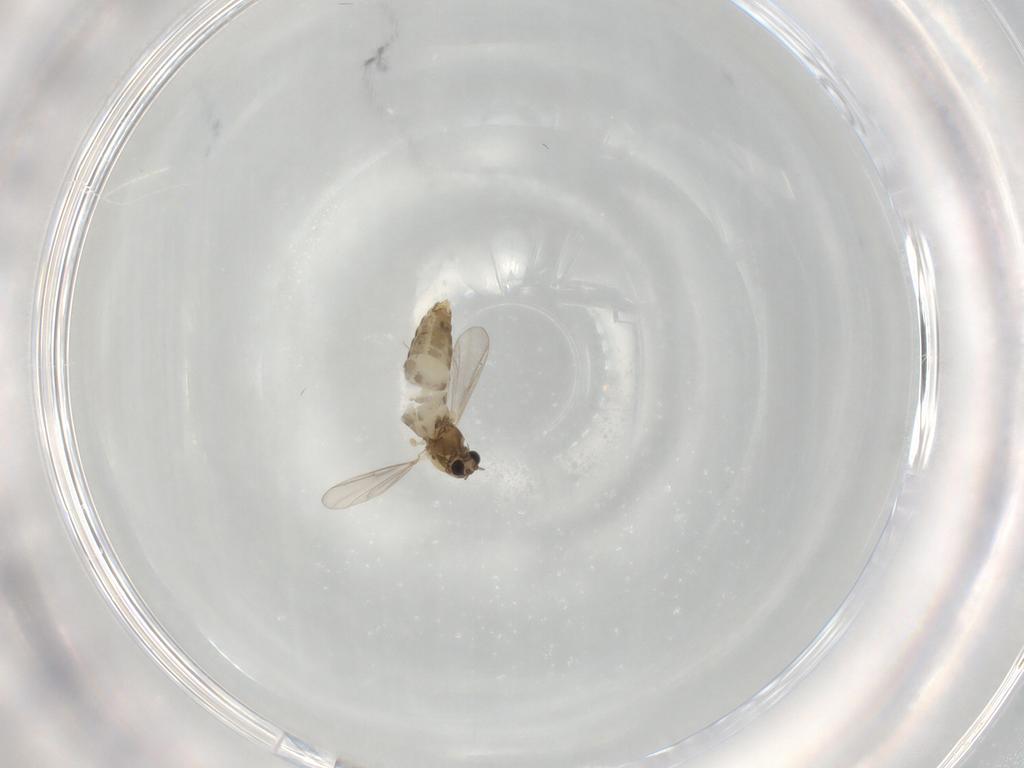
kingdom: Animalia
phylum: Arthropoda
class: Insecta
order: Diptera
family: Chironomidae
